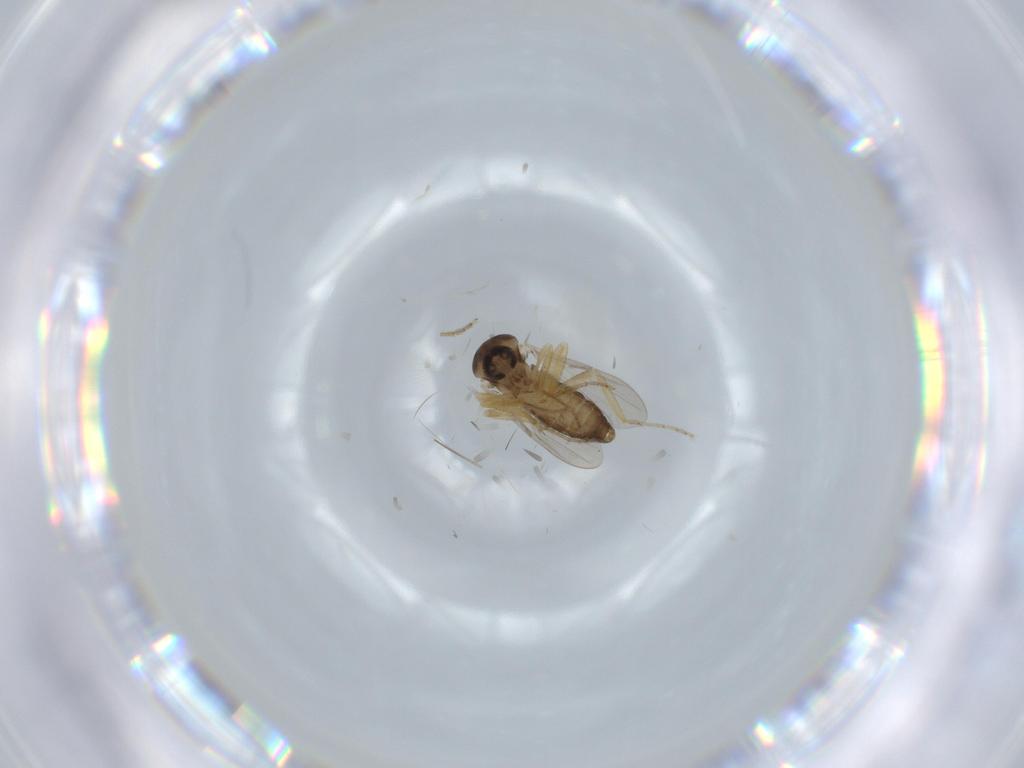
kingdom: Animalia
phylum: Arthropoda
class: Insecta
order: Diptera
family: Ceratopogonidae
